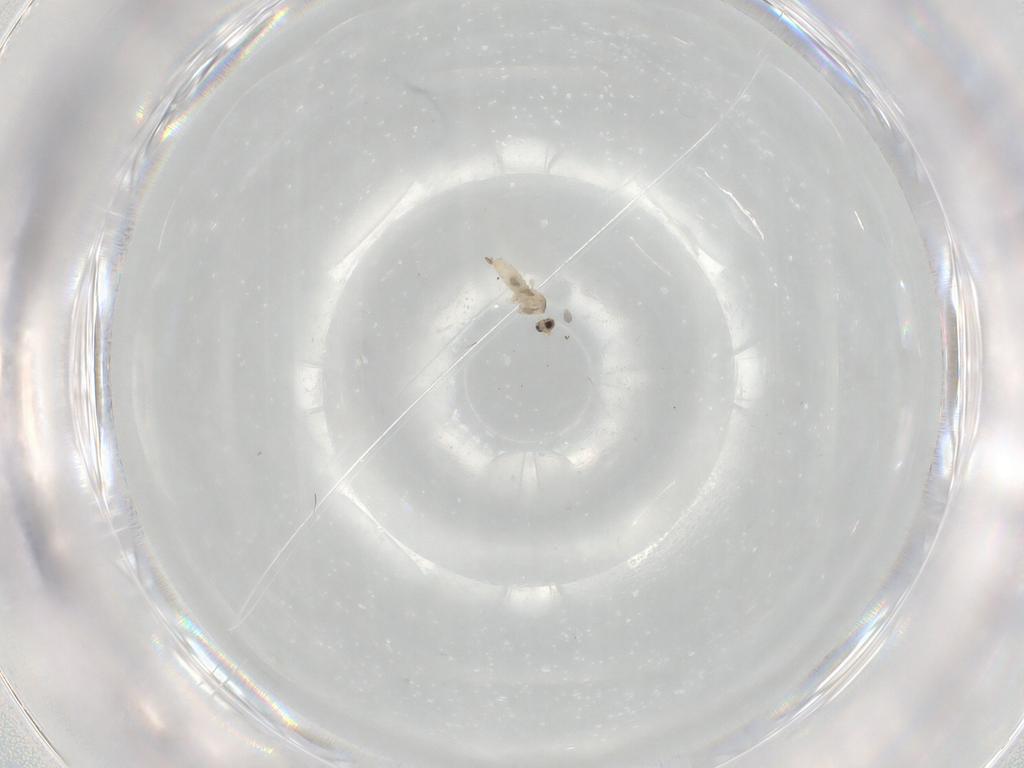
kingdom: Animalia
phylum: Arthropoda
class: Insecta
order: Diptera
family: Cecidomyiidae
